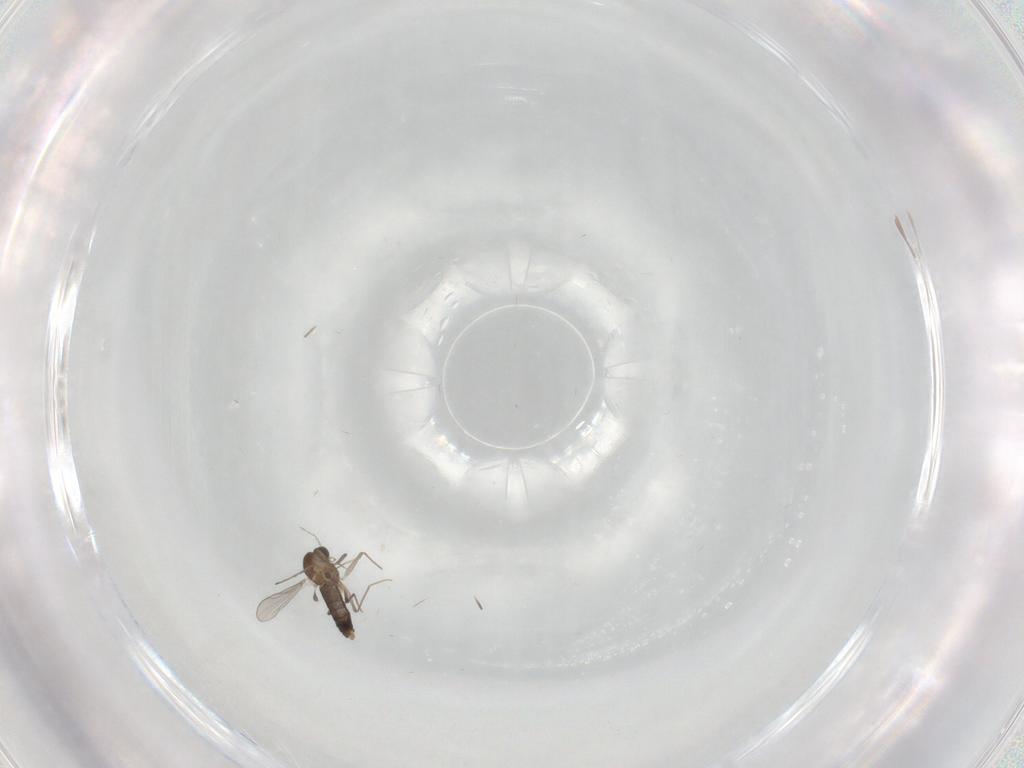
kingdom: Animalia
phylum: Arthropoda
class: Insecta
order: Diptera
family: Chironomidae
